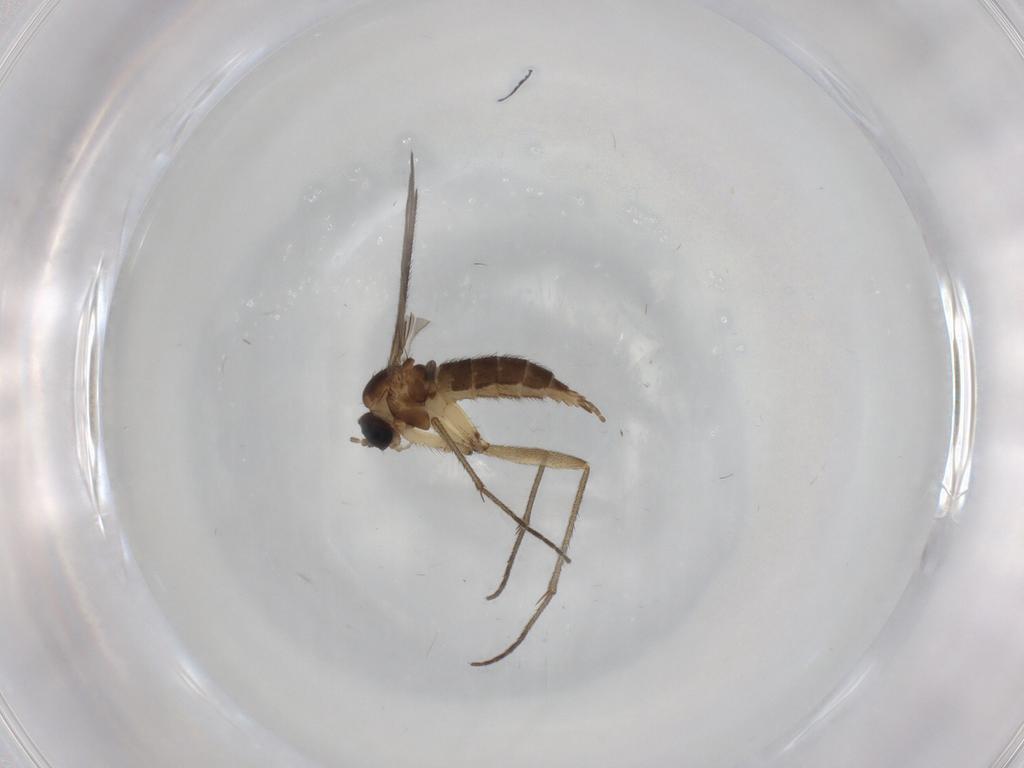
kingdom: Animalia
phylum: Arthropoda
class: Insecta
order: Diptera
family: Sciaridae
